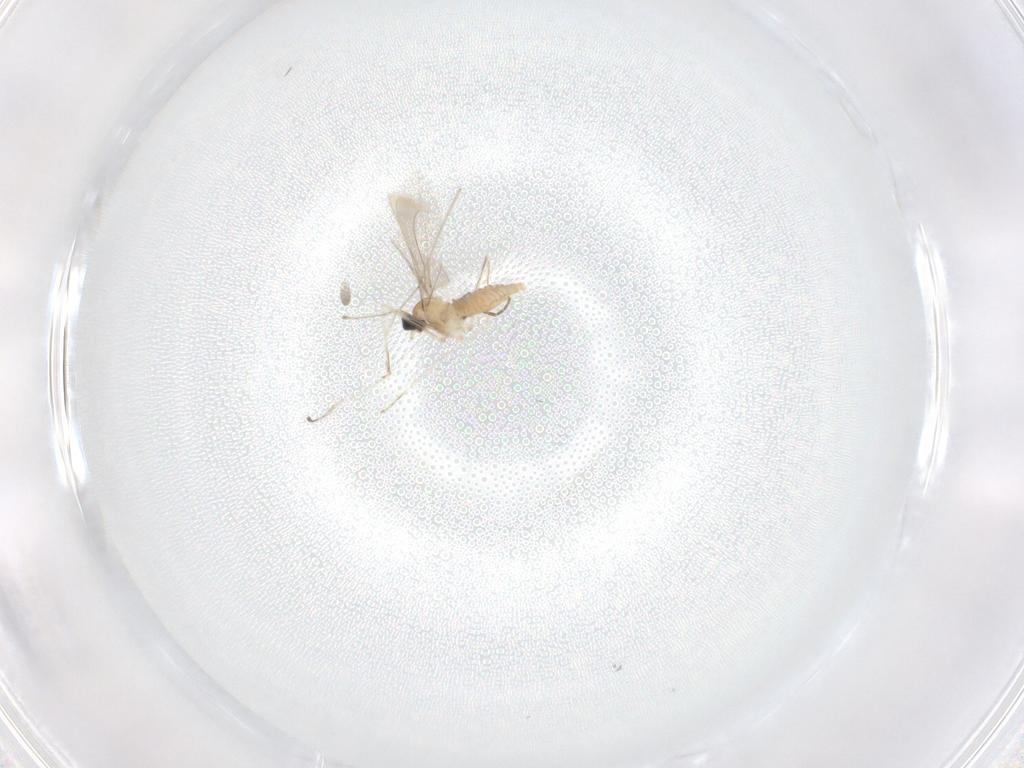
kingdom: Animalia
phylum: Arthropoda
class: Insecta
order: Diptera
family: Cecidomyiidae
